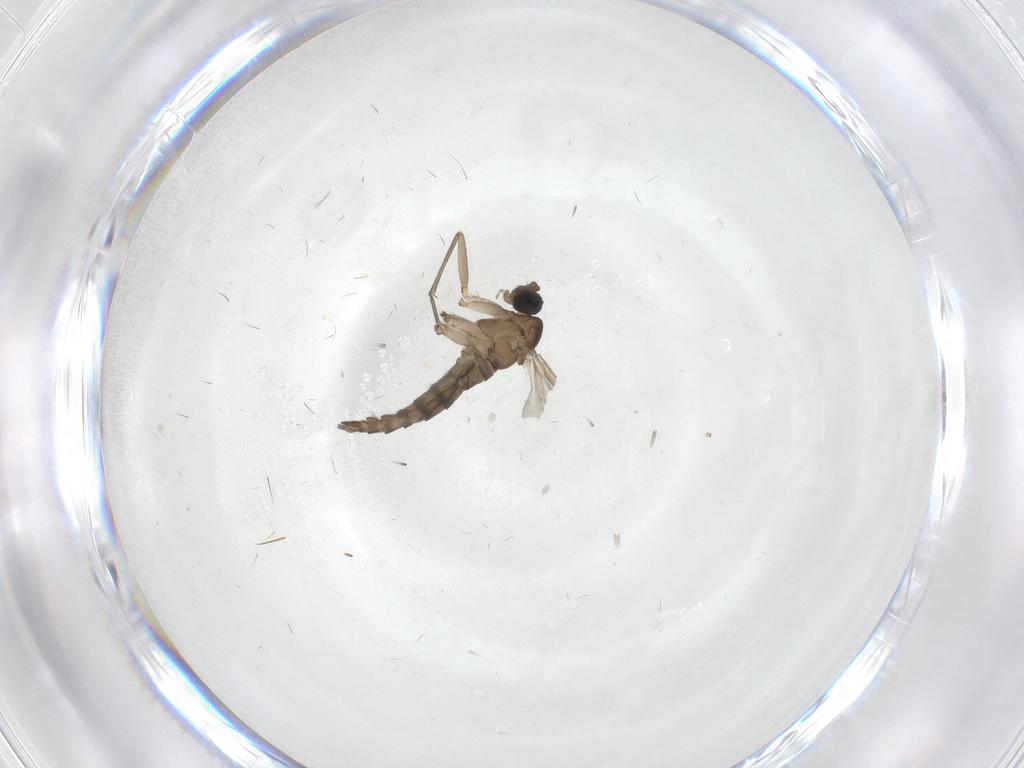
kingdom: Animalia
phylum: Arthropoda
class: Insecta
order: Diptera
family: Sciaridae
